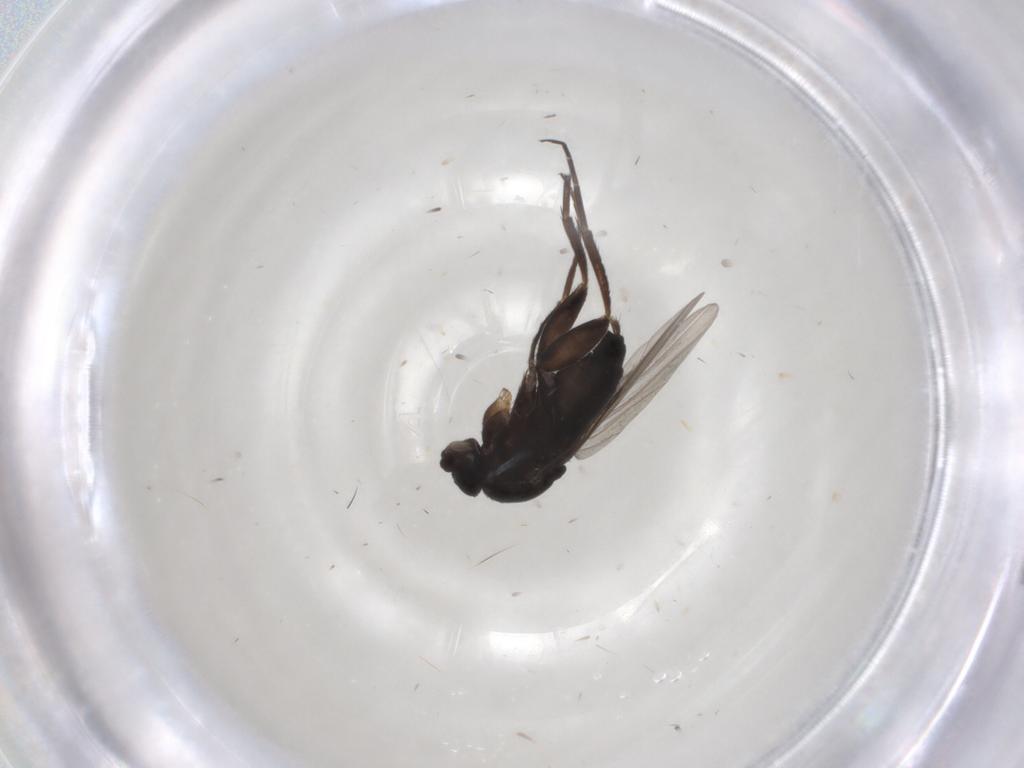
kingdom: Animalia
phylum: Arthropoda
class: Insecta
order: Diptera
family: Phoridae
